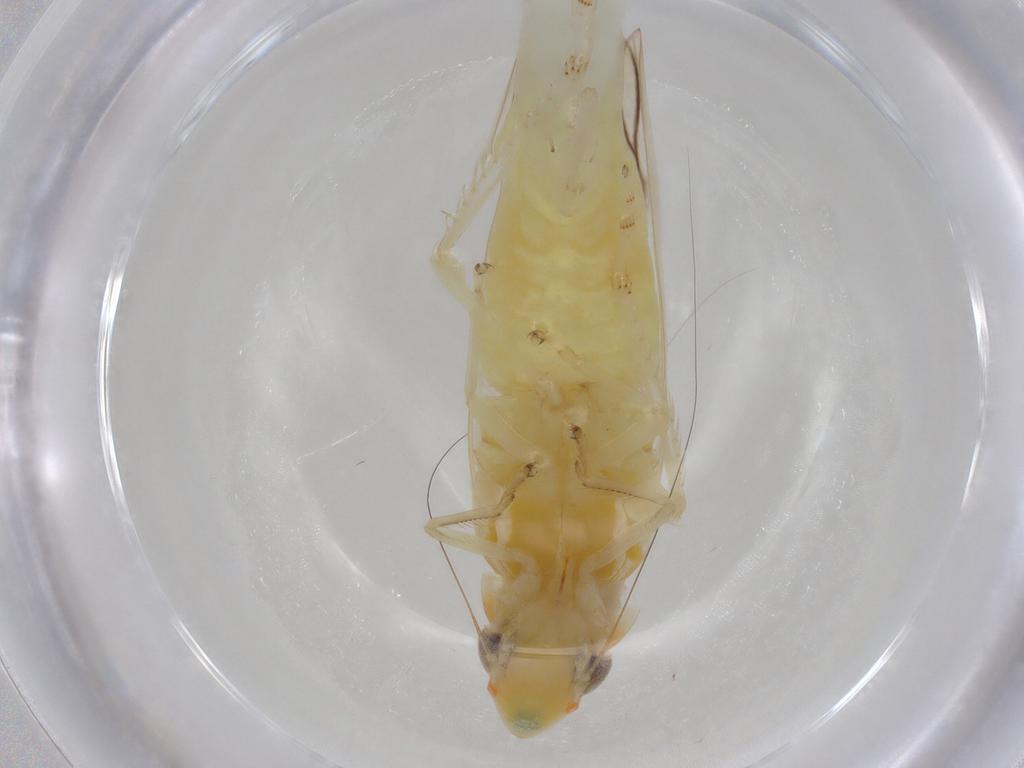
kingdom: Animalia
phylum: Arthropoda
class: Insecta
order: Hemiptera
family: Cicadellidae
